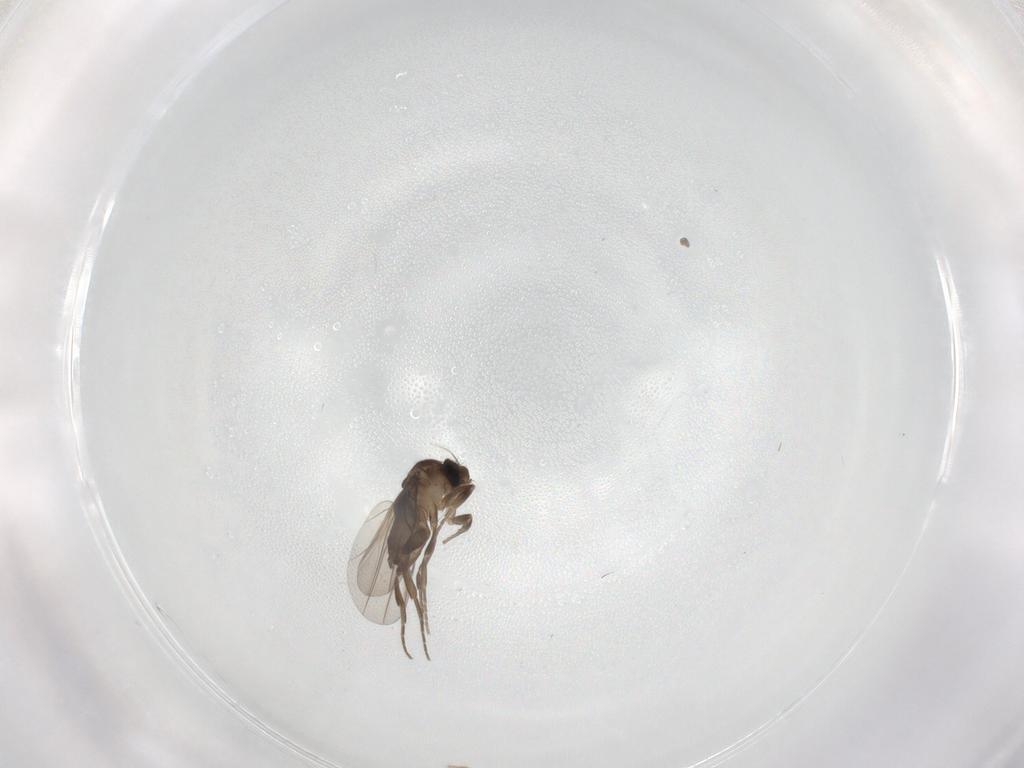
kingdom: Animalia
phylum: Arthropoda
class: Insecta
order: Diptera
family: Phoridae
